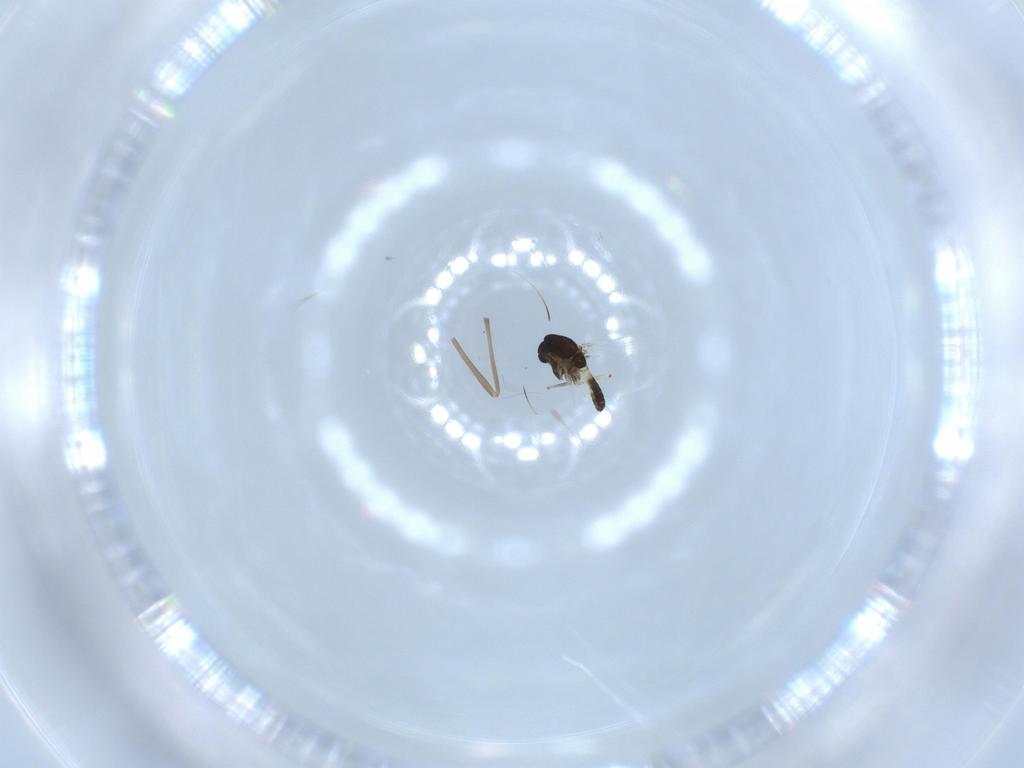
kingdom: Animalia
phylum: Arthropoda
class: Insecta
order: Diptera
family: Chironomidae
